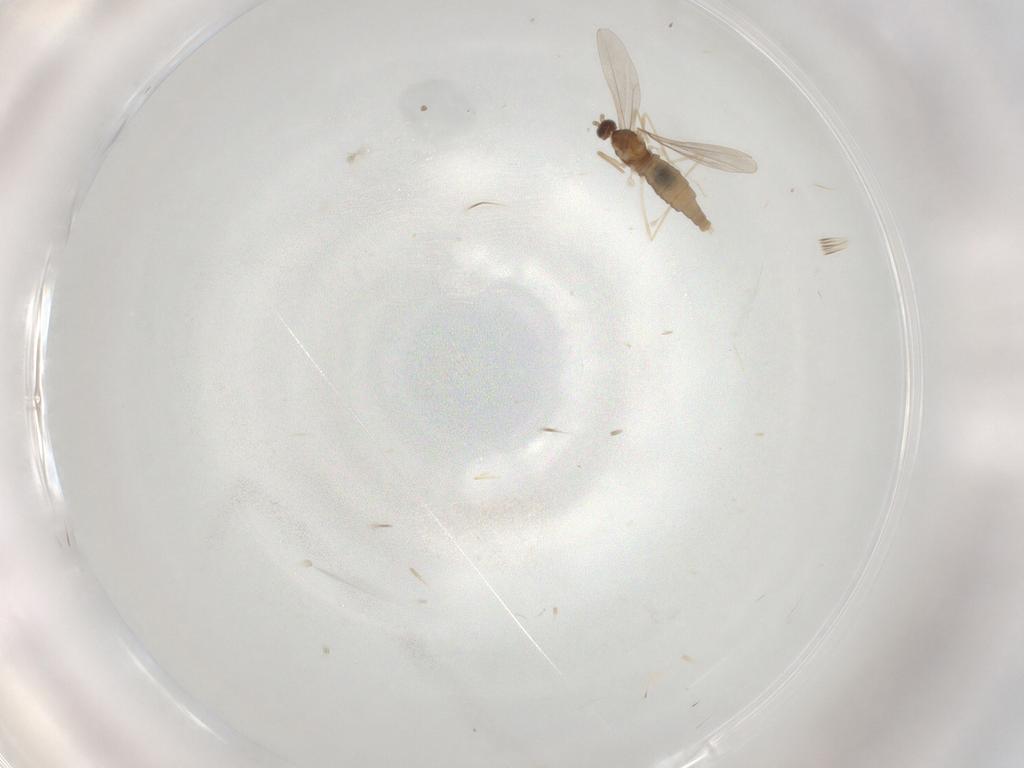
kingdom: Animalia
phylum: Arthropoda
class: Insecta
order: Diptera
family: Cecidomyiidae
